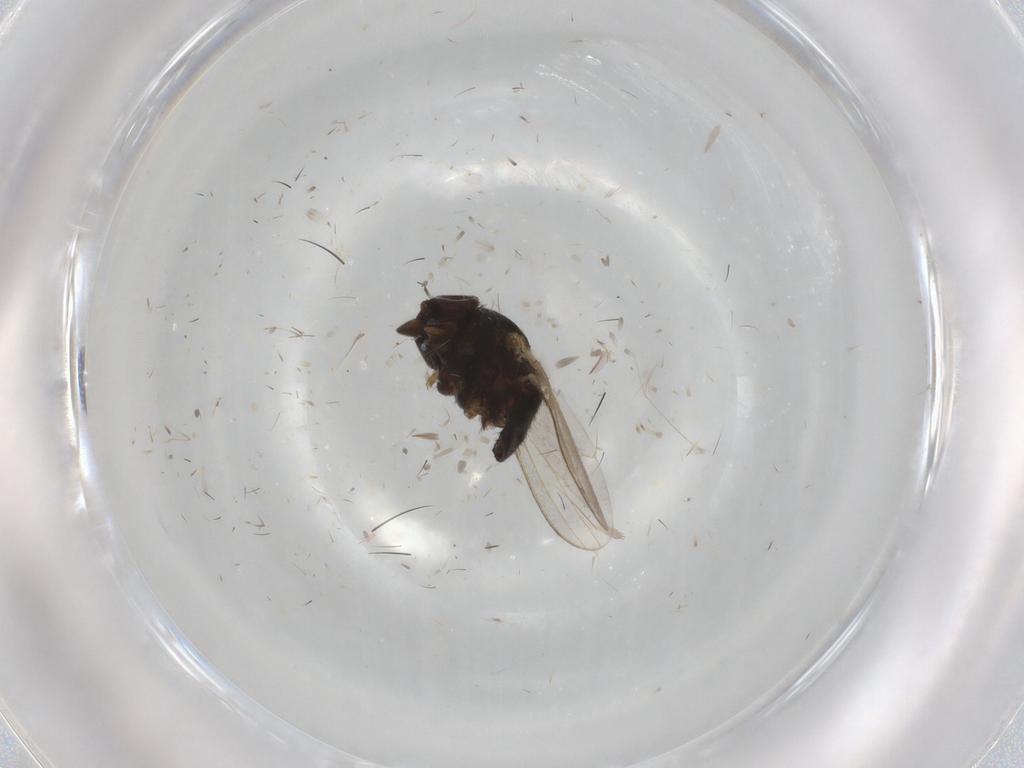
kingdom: Animalia
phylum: Arthropoda
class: Insecta
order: Diptera
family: Milichiidae
